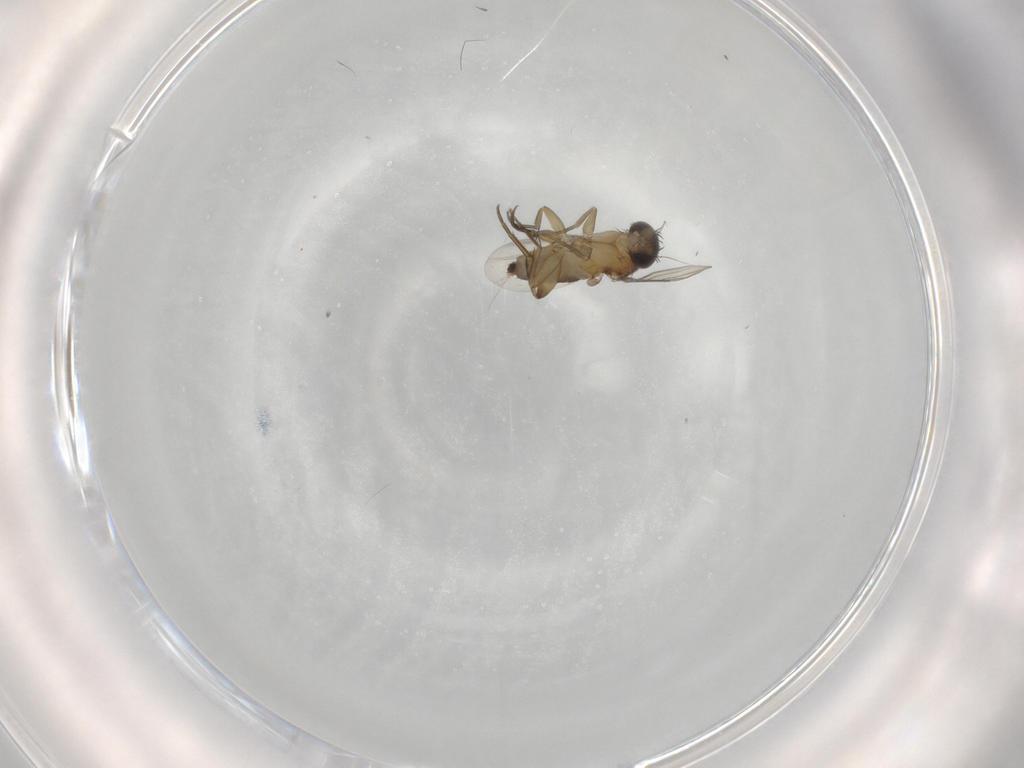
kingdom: Animalia
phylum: Arthropoda
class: Insecta
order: Diptera
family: Phoridae
